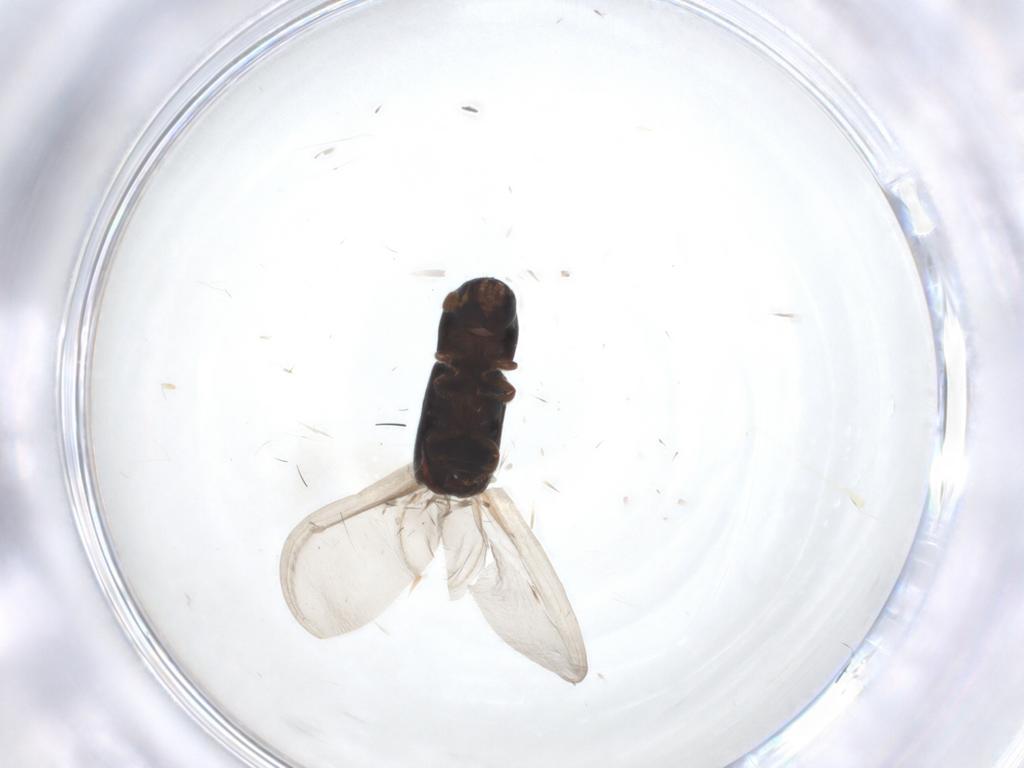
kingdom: Animalia
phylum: Arthropoda
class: Insecta
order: Coleoptera
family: Curculionidae
